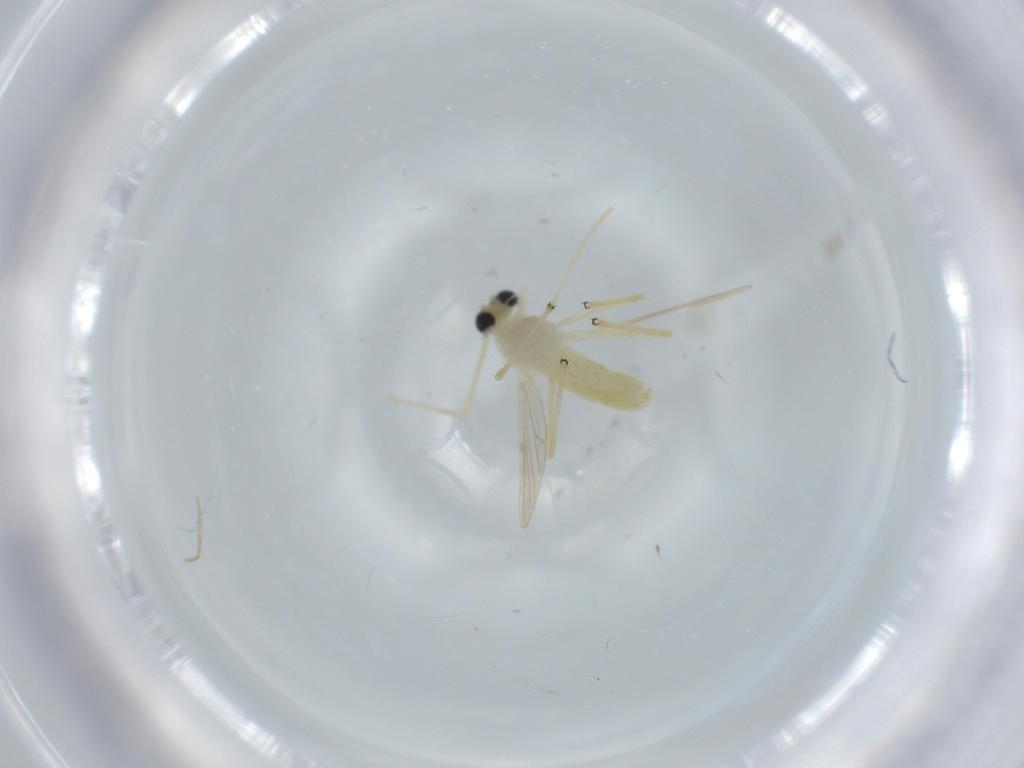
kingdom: Animalia
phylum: Arthropoda
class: Insecta
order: Diptera
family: Chironomidae
